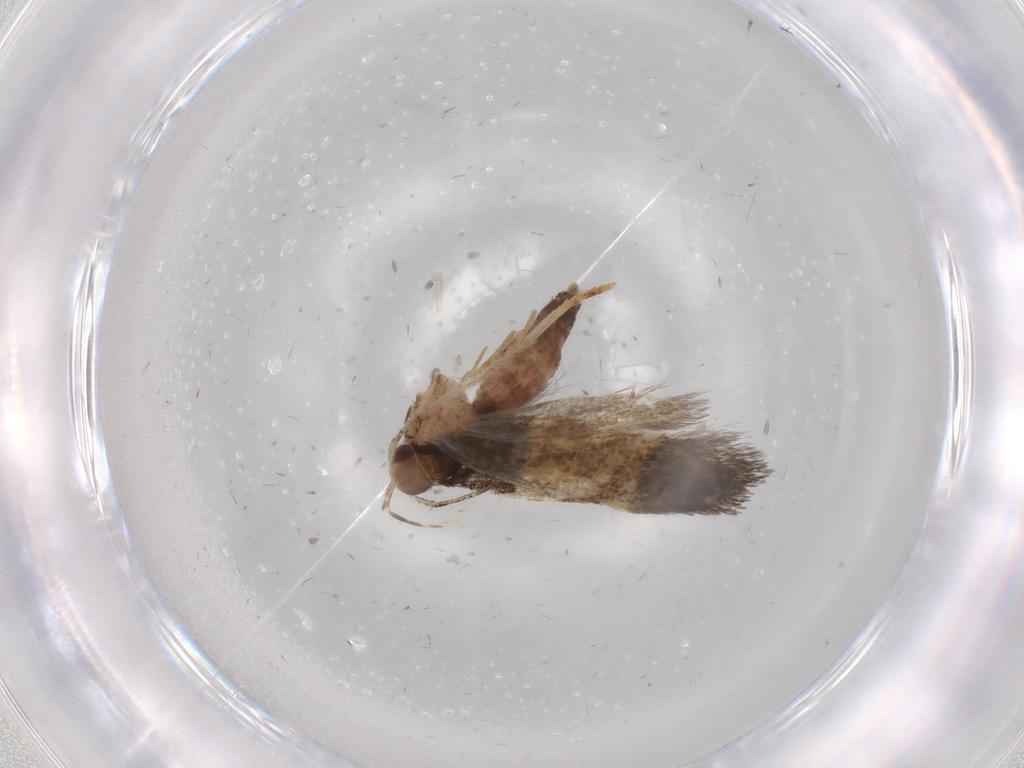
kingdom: Animalia
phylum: Arthropoda
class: Insecta
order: Lepidoptera
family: Cosmopterigidae
